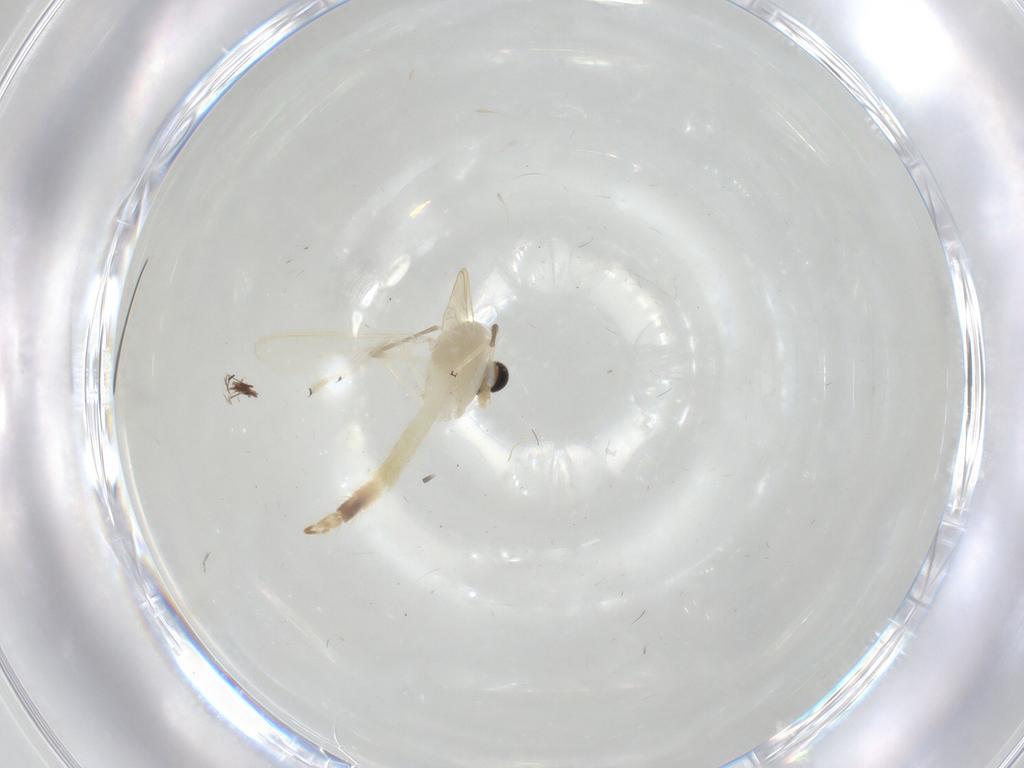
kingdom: Animalia
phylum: Arthropoda
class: Insecta
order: Diptera
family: Chironomidae
